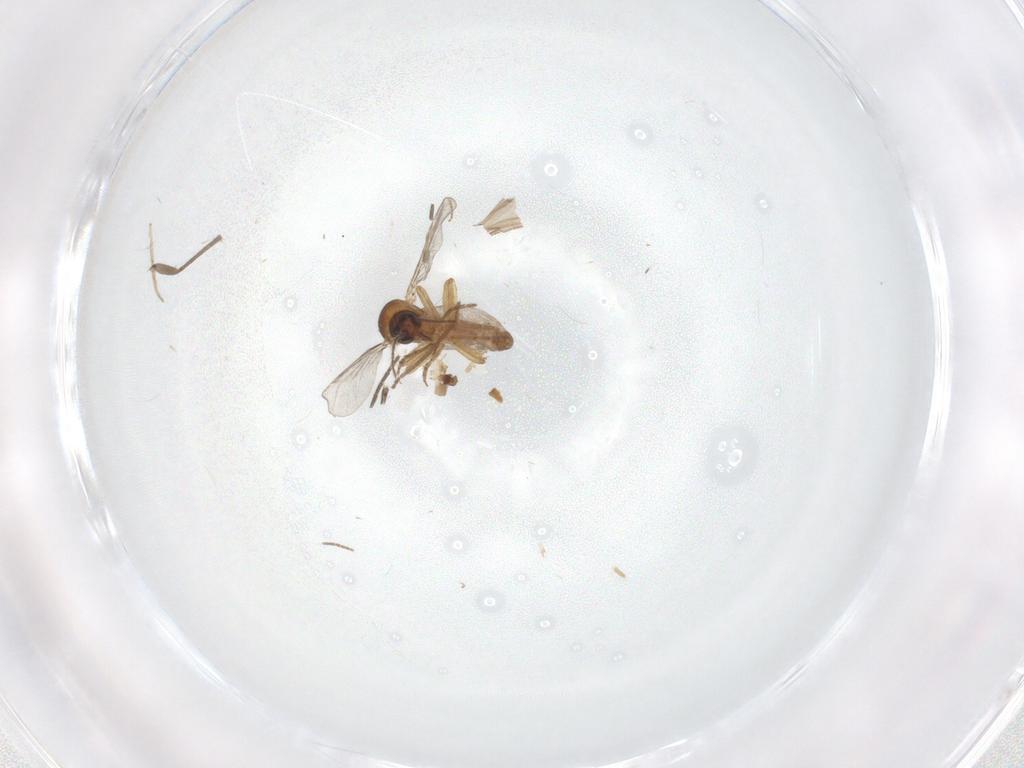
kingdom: Animalia
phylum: Arthropoda
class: Insecta
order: Diptera
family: Chironomidae
